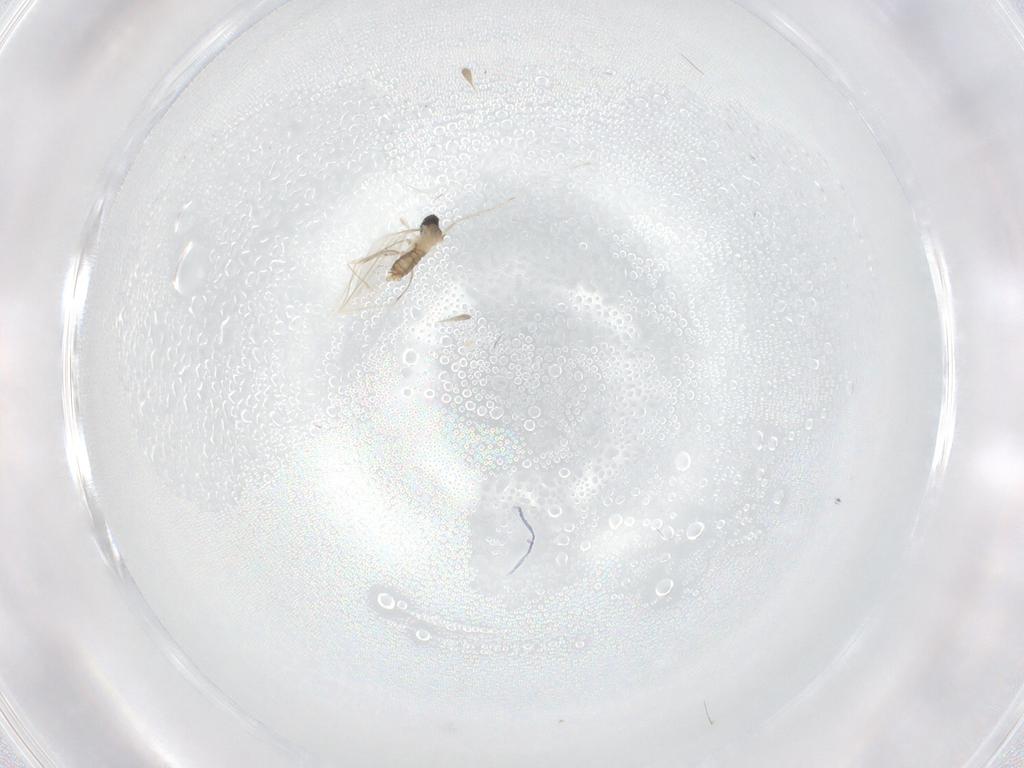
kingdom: Animalia
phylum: Arthropoda
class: Insecta
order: Diptera
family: Cecidomyiidae
